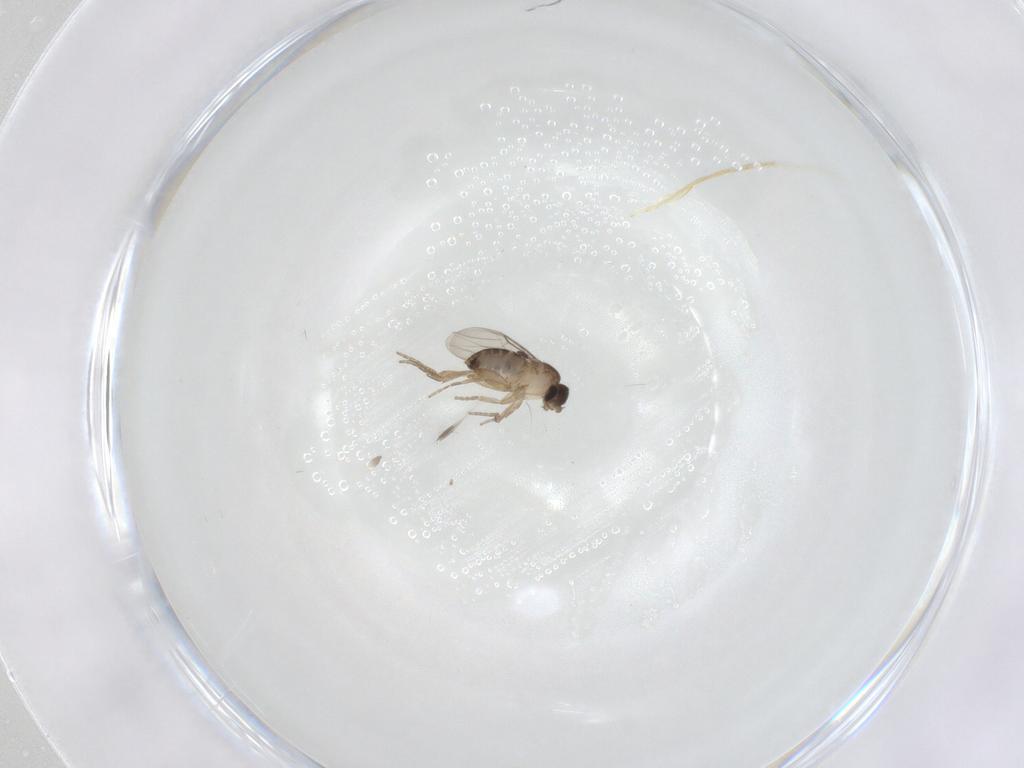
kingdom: Animalia
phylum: Arthropoda
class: Insecta
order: Diptera
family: Phoridae
